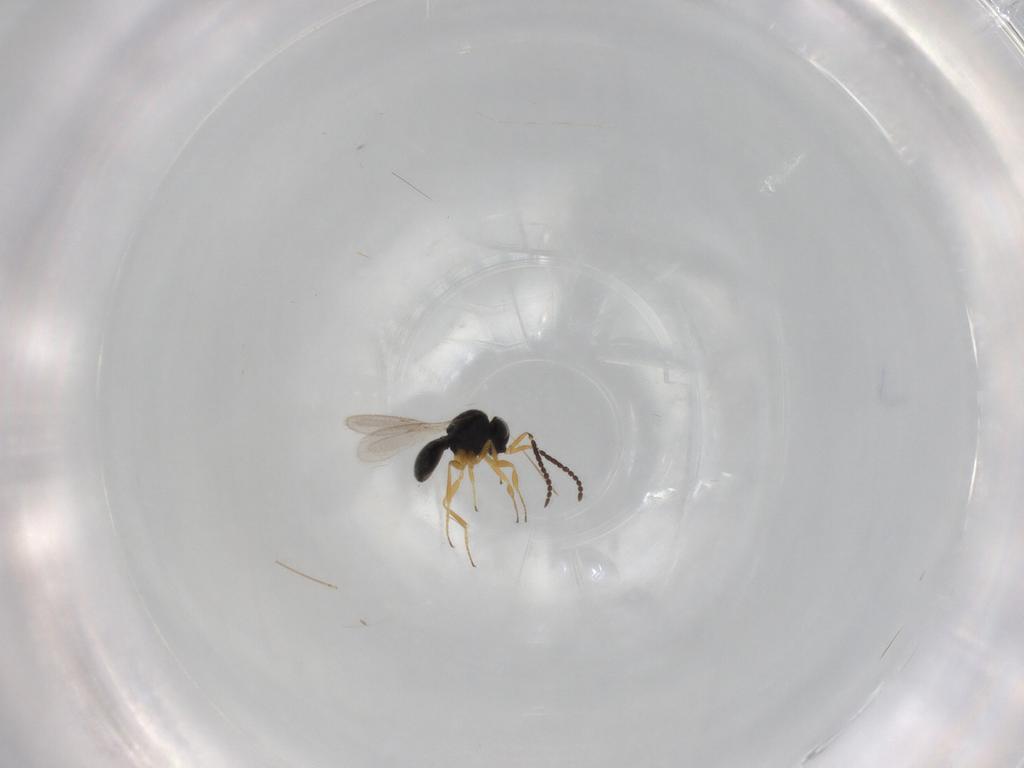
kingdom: Animalia
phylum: Arthropoda
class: Insecta
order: Hymenoptera
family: Scelionidae
